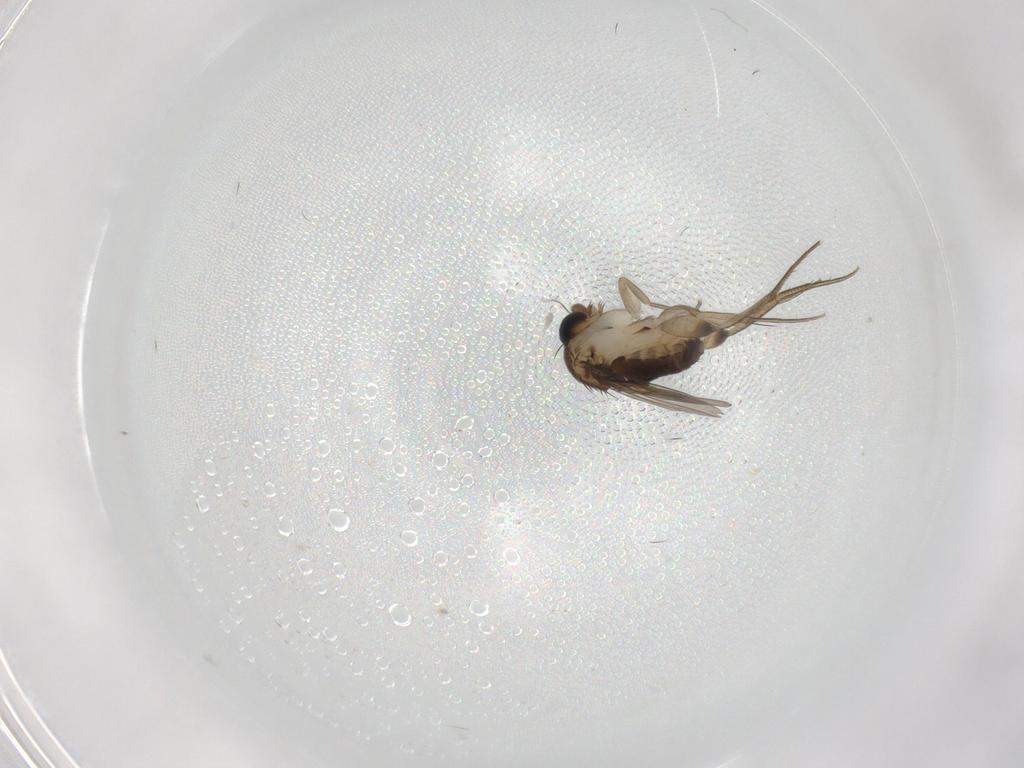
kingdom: Animalia
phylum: Arthropoda
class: Insecta
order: Diptera
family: Phoridae
